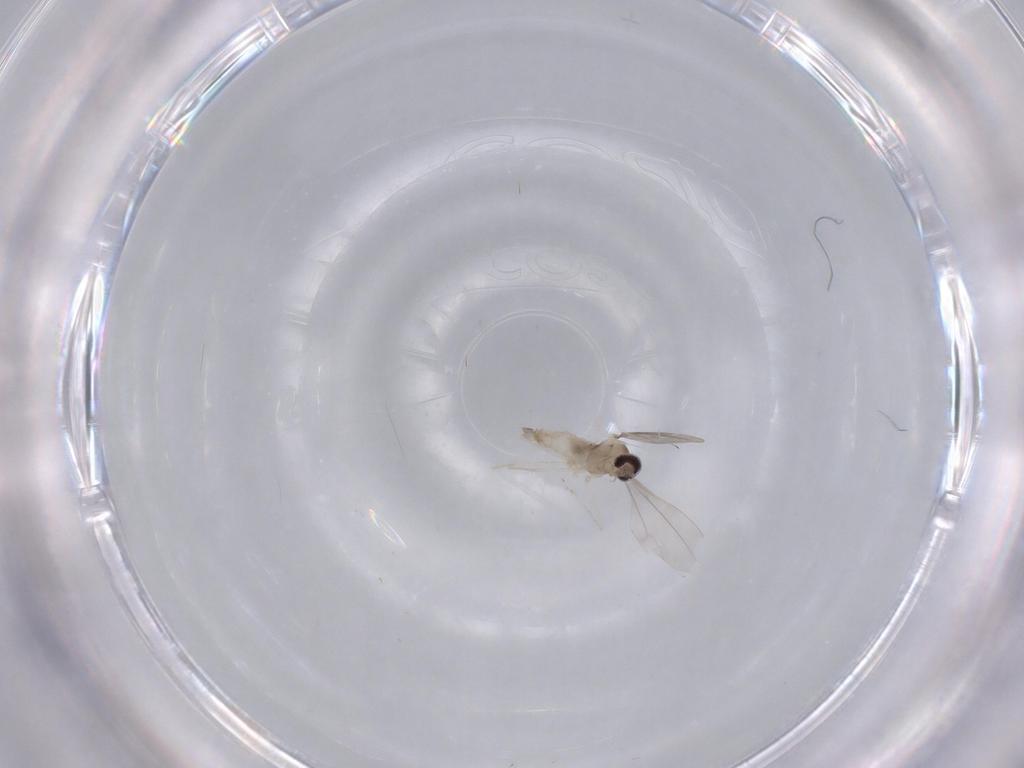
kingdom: Animalia
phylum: Arthropoda
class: Insecta
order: Diptera
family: Cecidomyiidae
